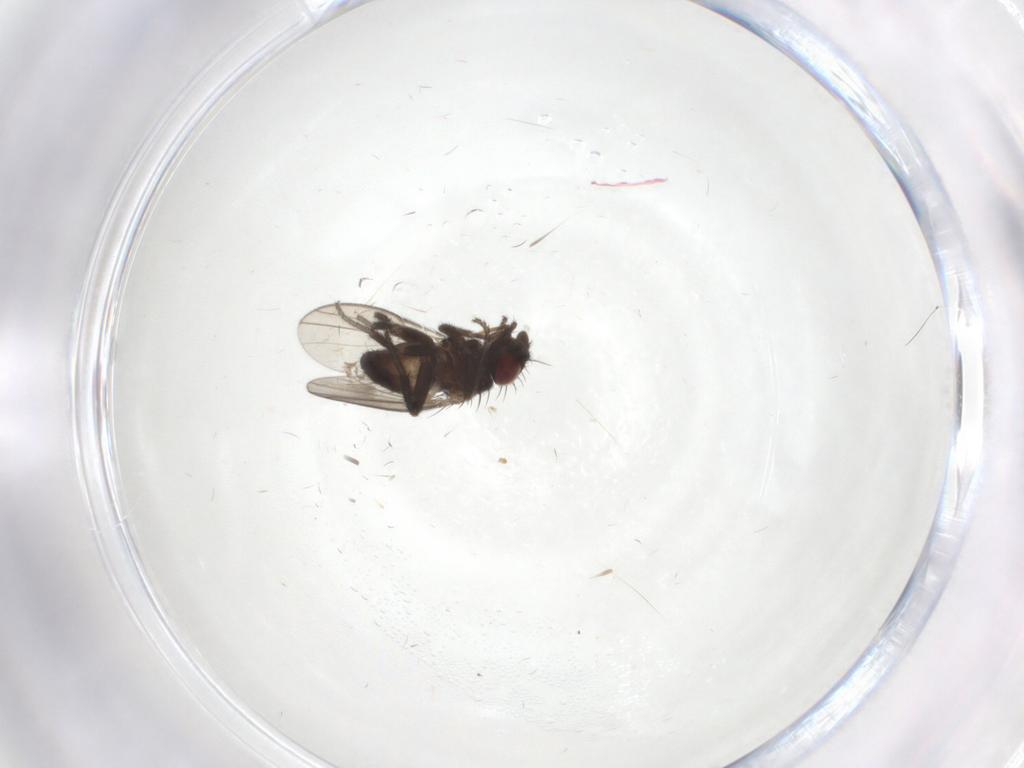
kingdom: Animalia
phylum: Arthropoda
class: Insecta
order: Diptera
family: Milichiidae
